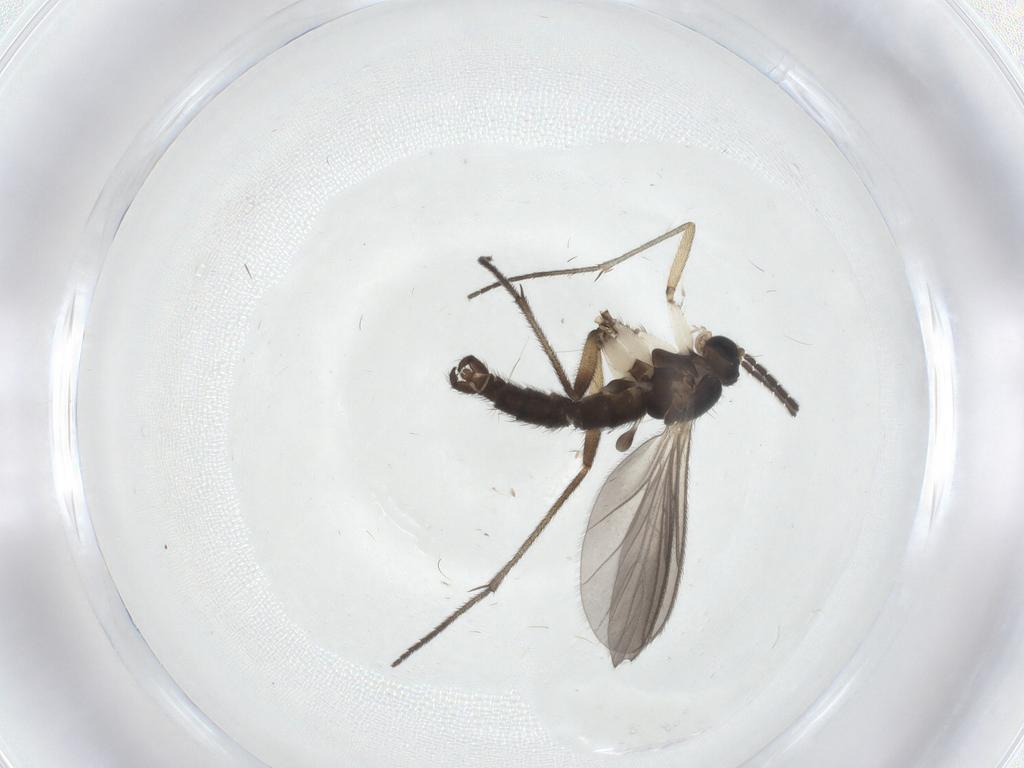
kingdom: Animalia
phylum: Arthropoda
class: Insecta
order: Diptera
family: Sciaridae
